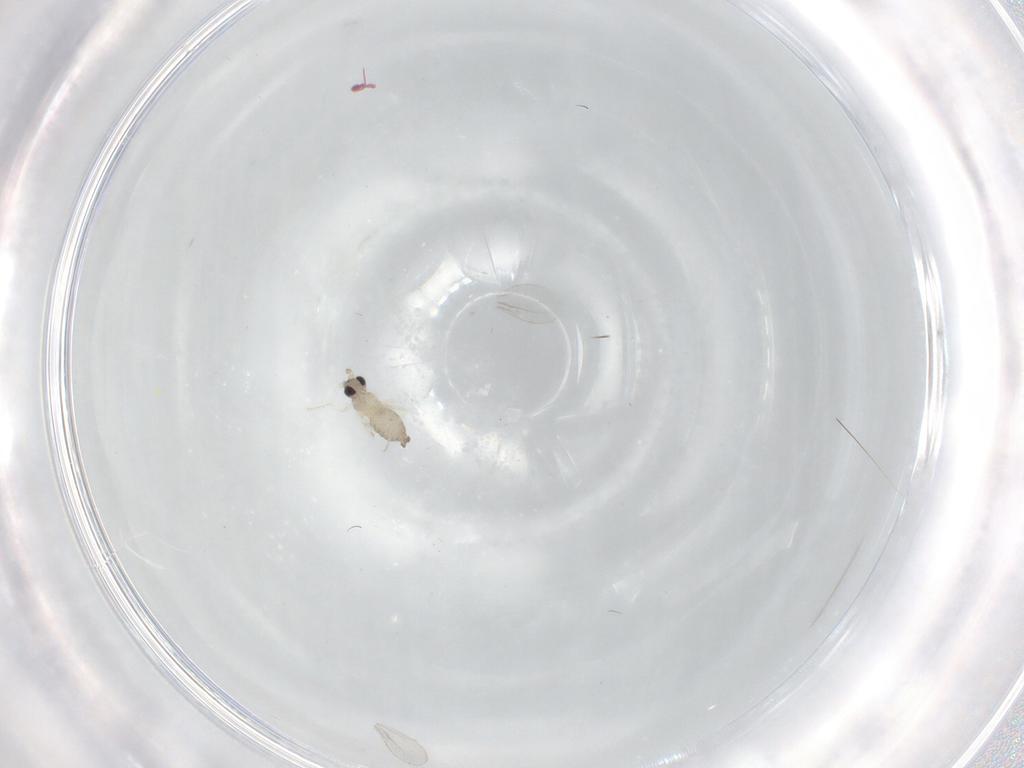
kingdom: Animalia
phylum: Arthropoda
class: Insecta
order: Diptera
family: Cecidomyiidae
